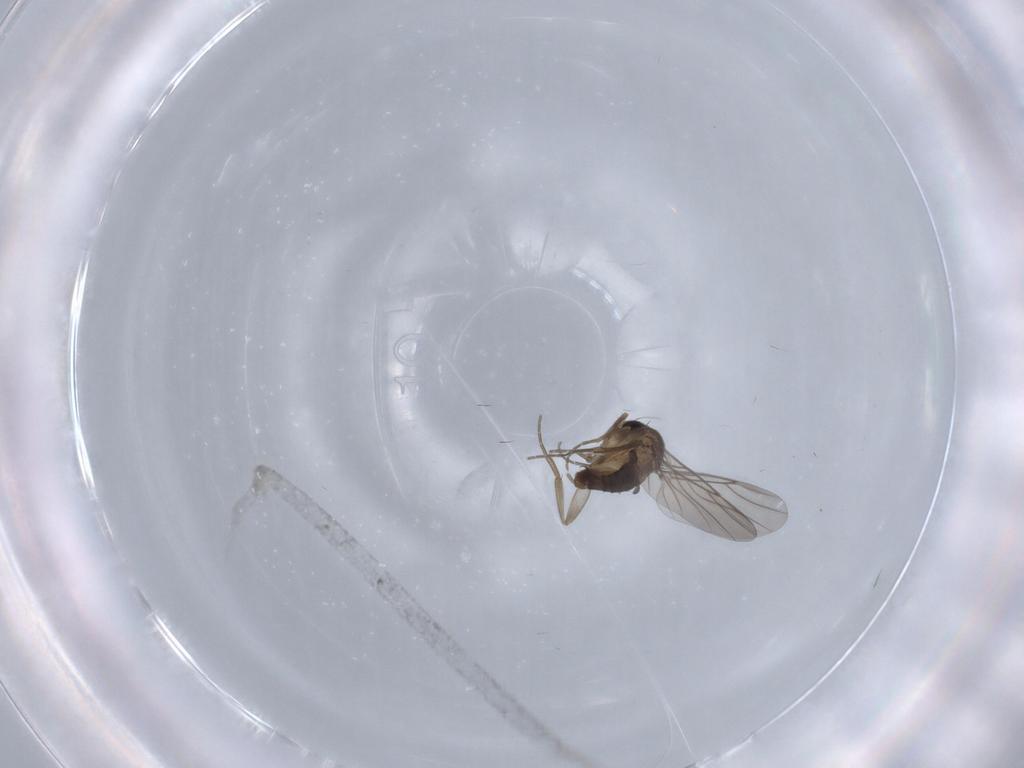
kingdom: Animalia
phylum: Arthropoda
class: Insecta
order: Diptera
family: Phoridae
